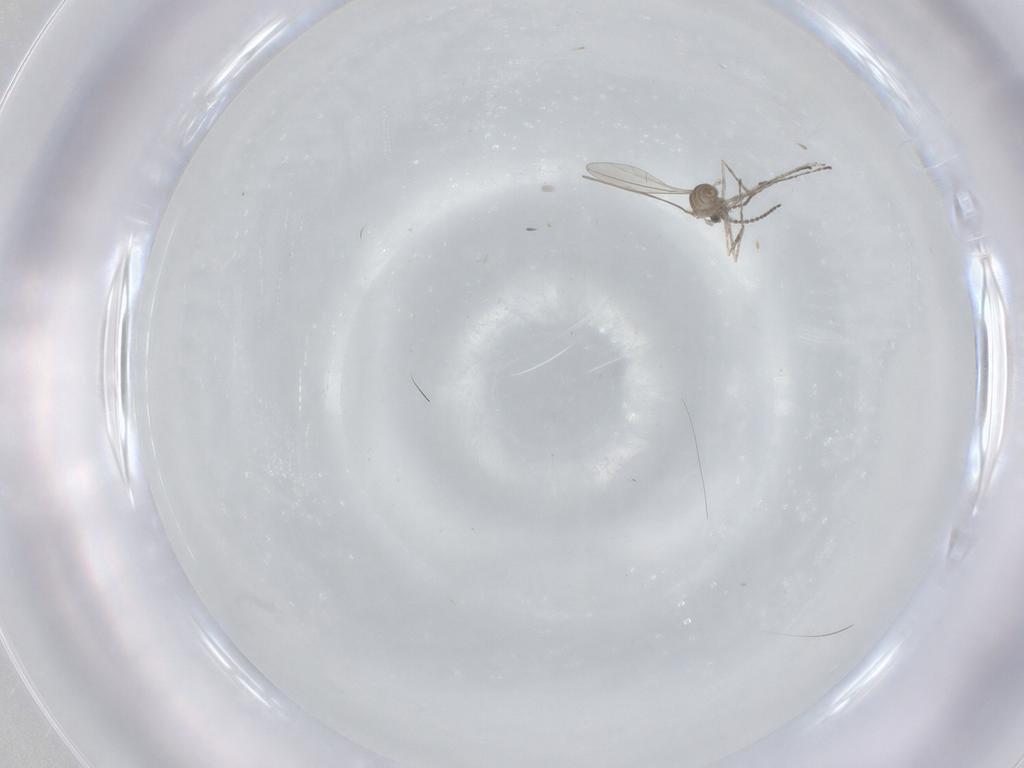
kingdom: Animalia
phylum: Arthropoda
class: Insecta
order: Diptera
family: Cecidomyiidae
